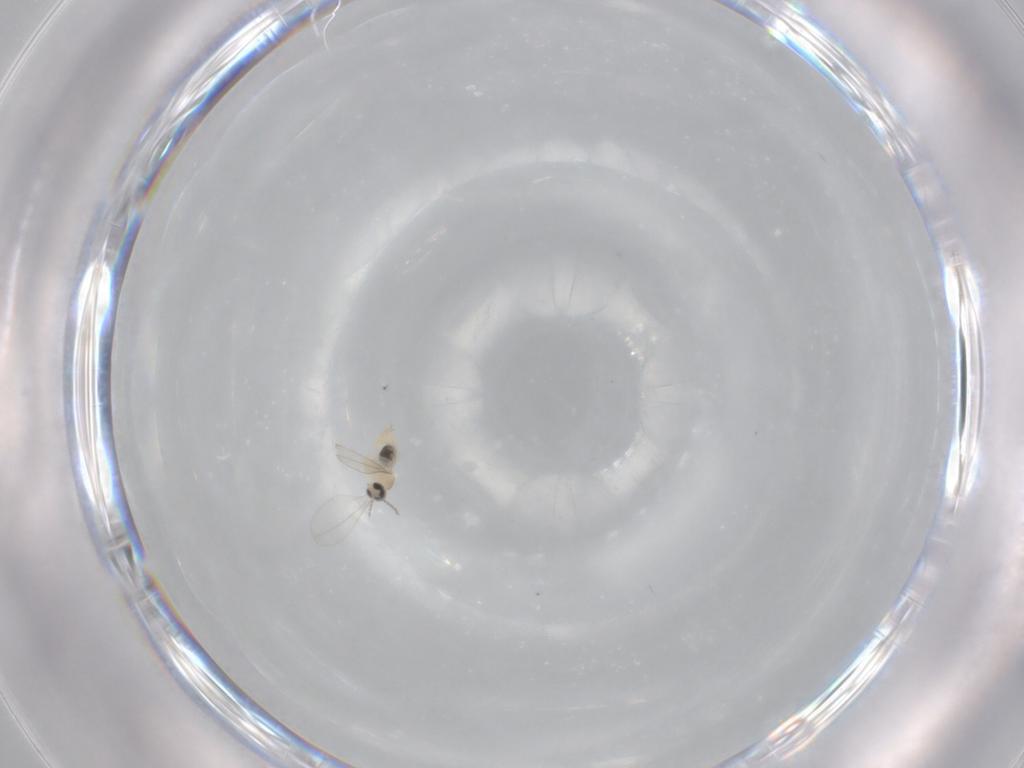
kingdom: Animalia
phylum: Arthropoda
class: Insecta
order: Diptera
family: Cecidomyiidae
